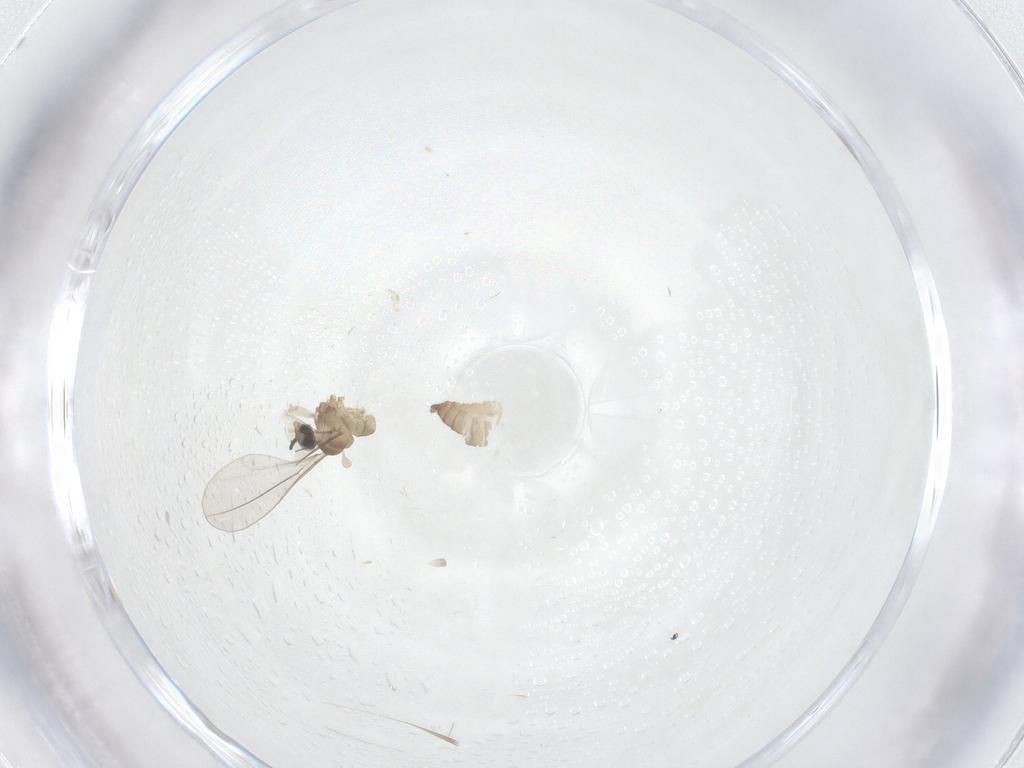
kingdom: Animalia
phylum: Arthropoda
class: Insecta
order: Diptera
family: Cecidomyiidae
